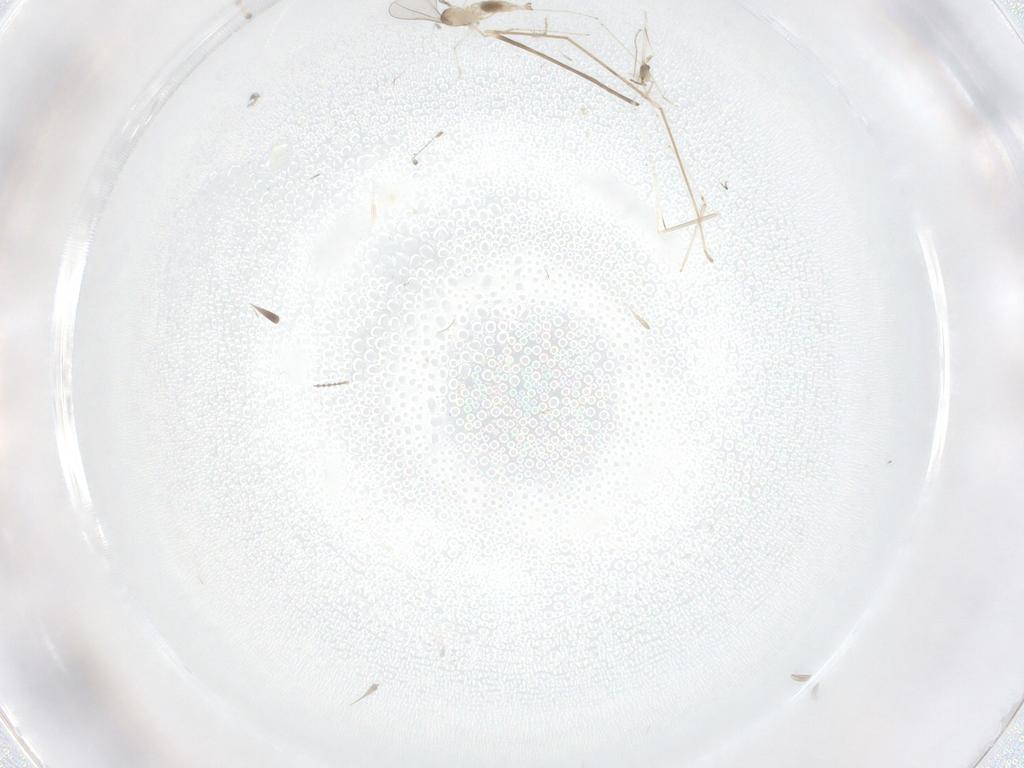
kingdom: Animalia
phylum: Arthropoda
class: Insecta
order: Diptera
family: Cecidomyiidae
